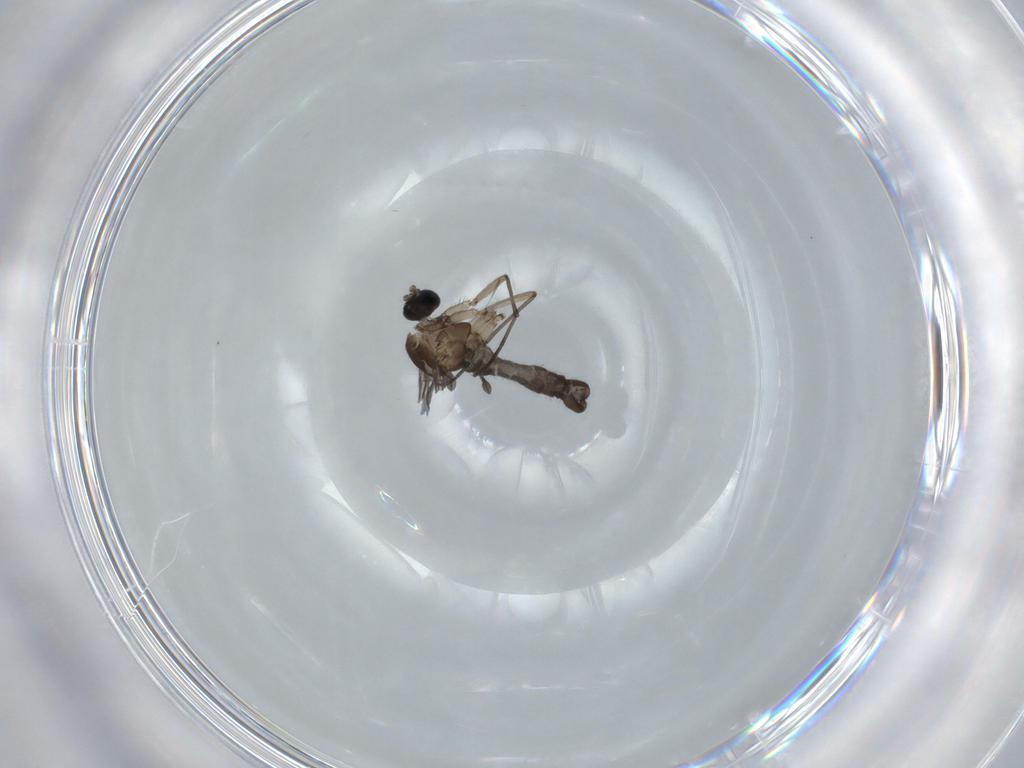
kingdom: Animalia
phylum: Arthropoda
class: Insecta
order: Diptera
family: Sciaridae
